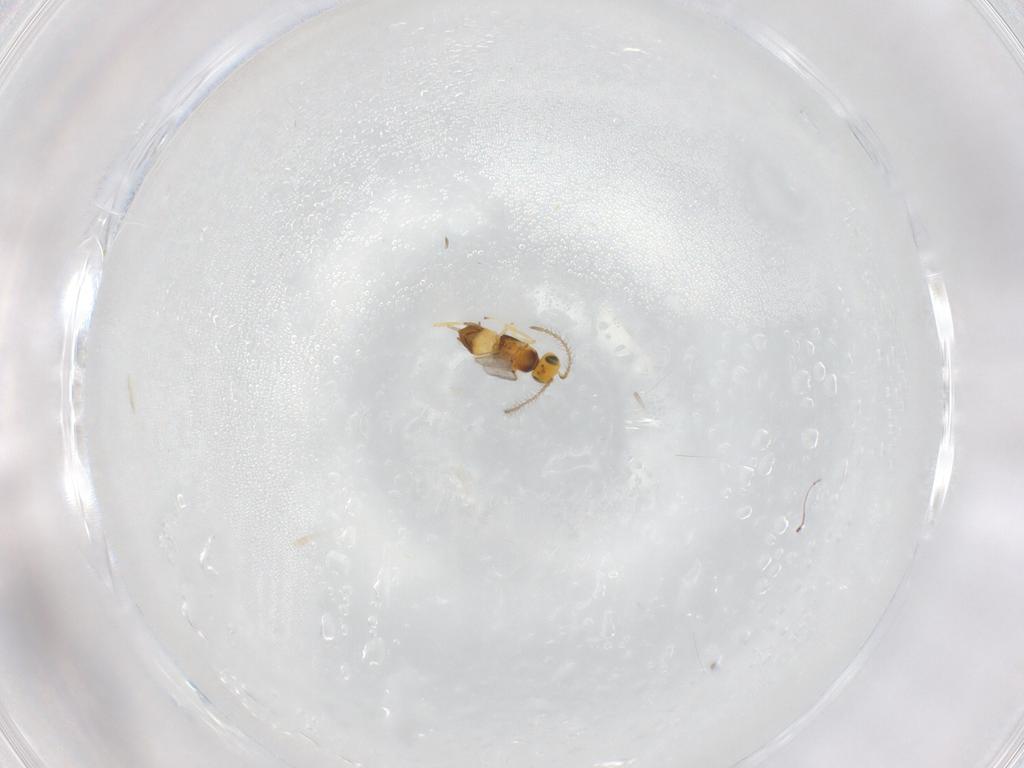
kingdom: Animalia
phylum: Arthropoda
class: Insecta
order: Hymenoptera
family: Encyrtidae
